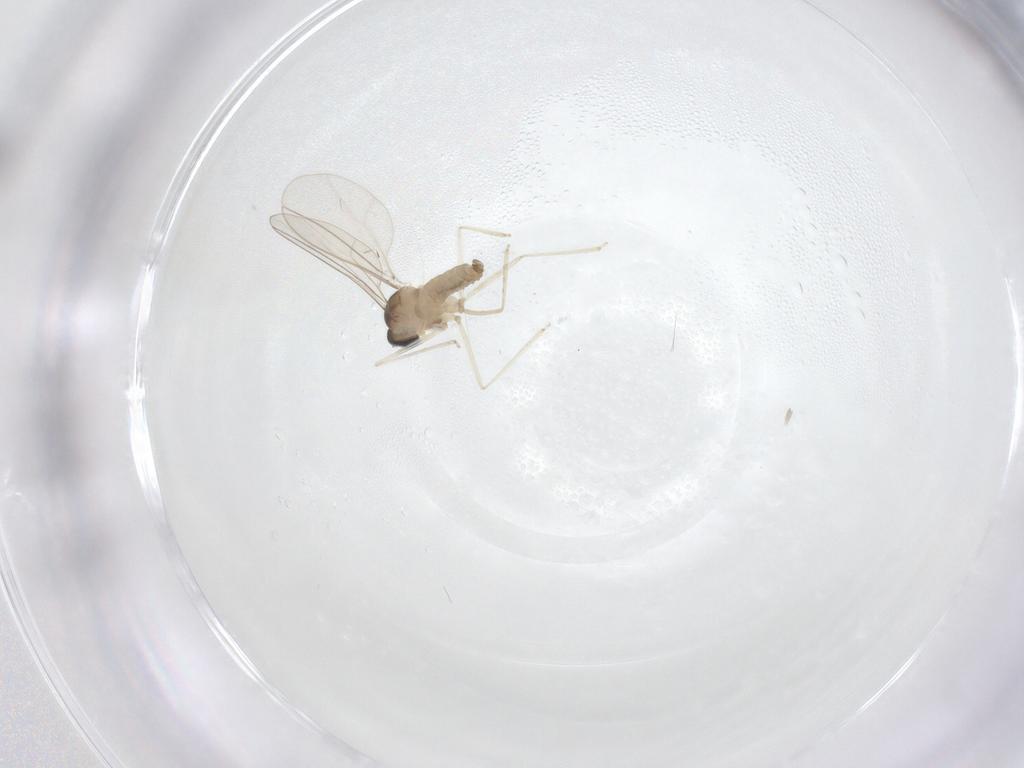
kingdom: Animalia
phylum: Arthropoda
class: Insecta
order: Diptera
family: Cecidomyiidae
